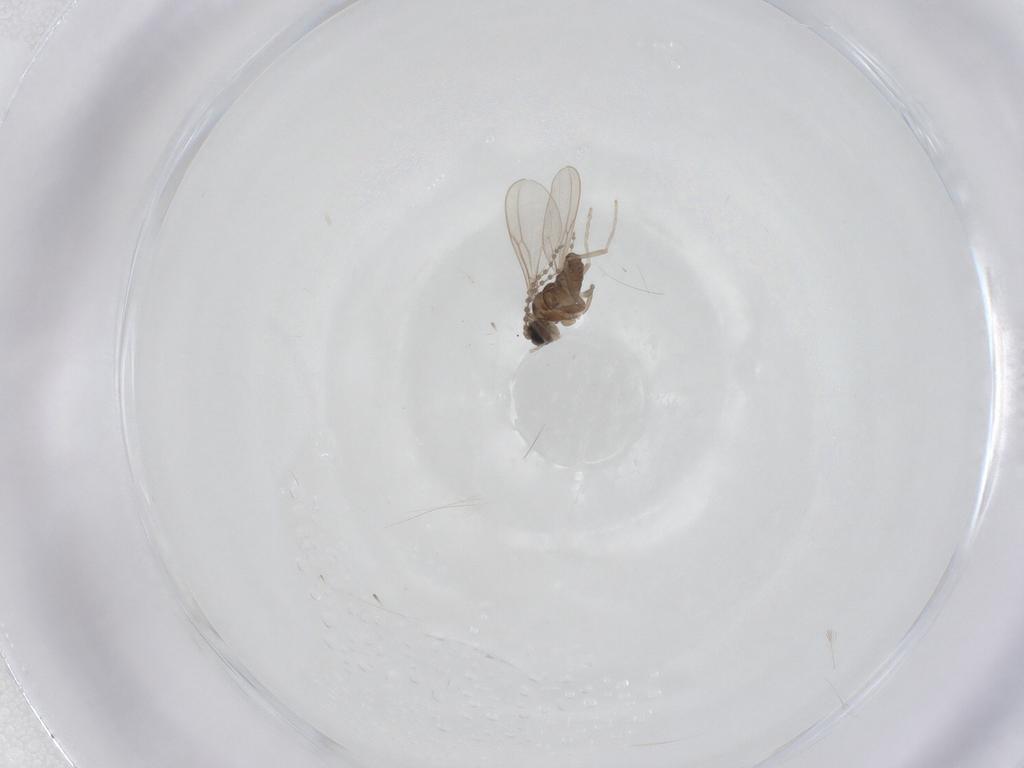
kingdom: Animalia
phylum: Arthropoda
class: Insecta
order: Diptera
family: Cecidomyiidae
